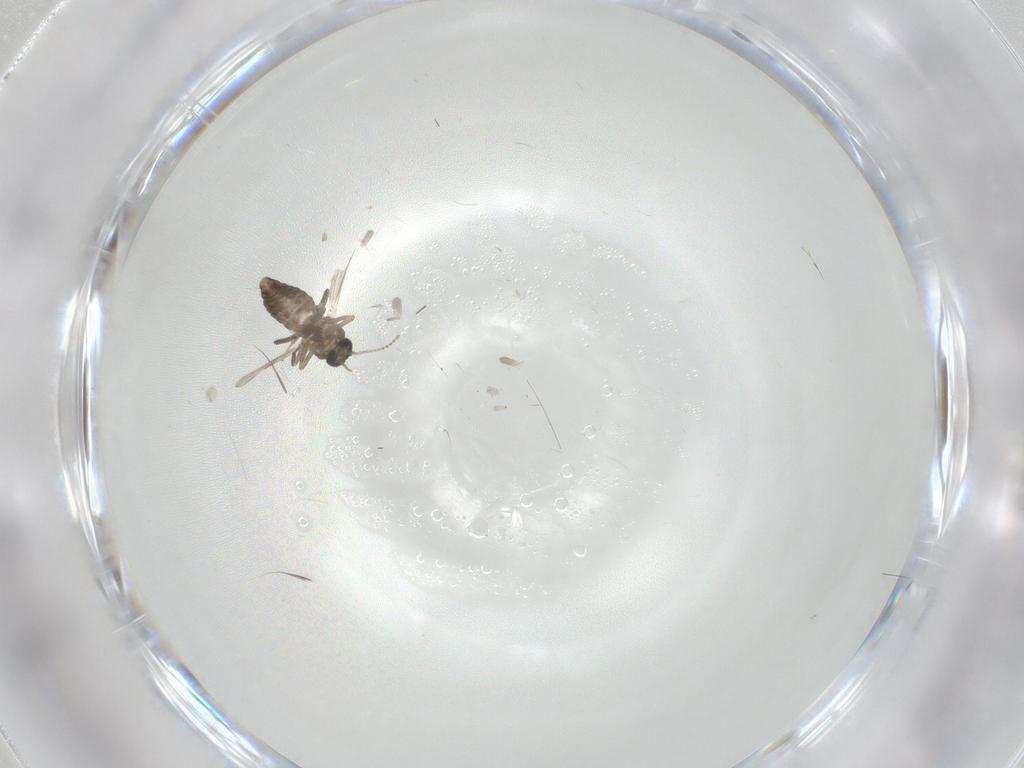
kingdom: Animalia
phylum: Arthropoda
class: Insecta
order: Diptera
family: Ceratopogonidae
